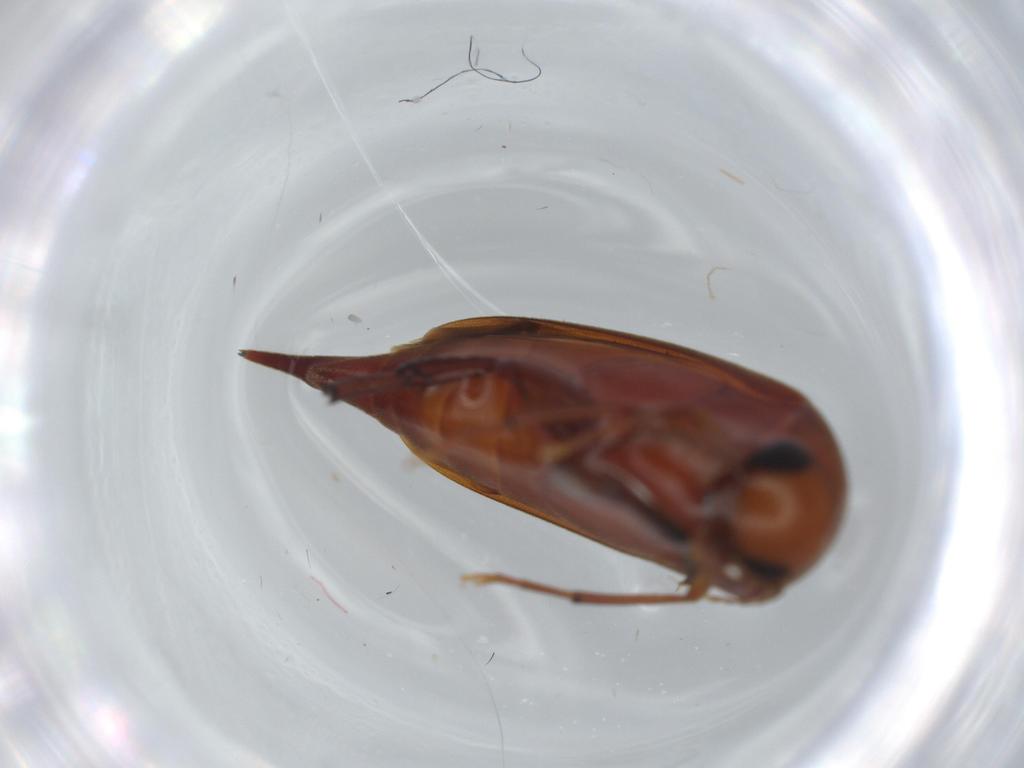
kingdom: Animalia
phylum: Arthropoda
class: Insecta
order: Coleoptera
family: Mordellidae
